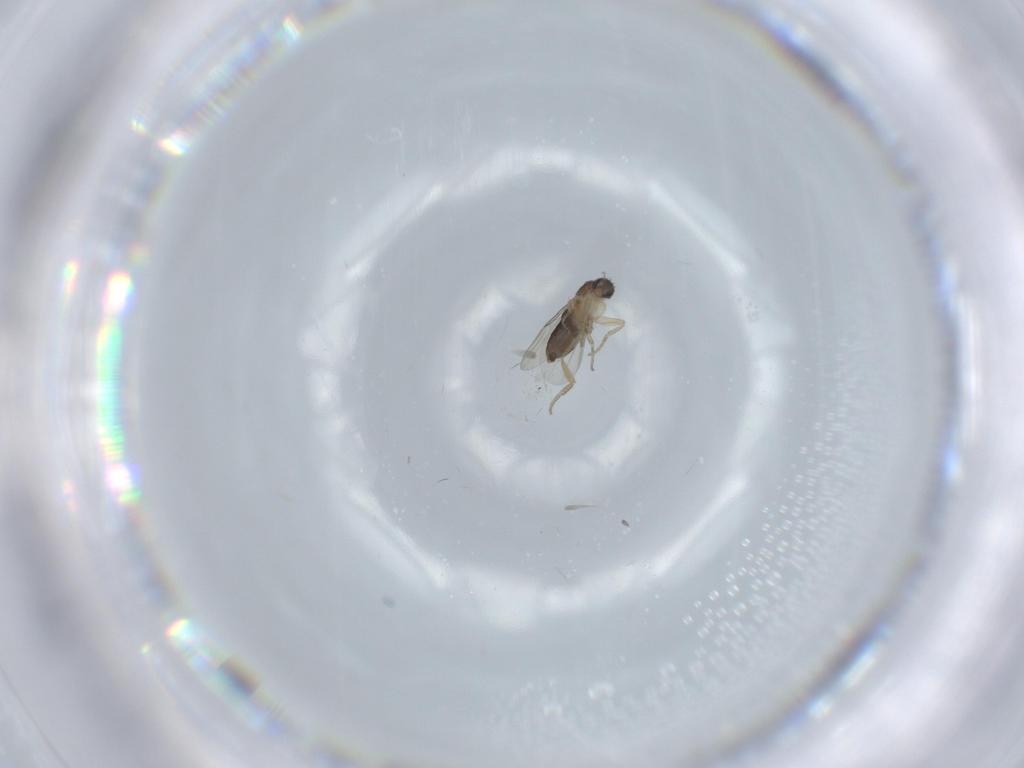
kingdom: Animalia
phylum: Arthropoda
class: Insecta
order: Diptera
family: Phoridae
